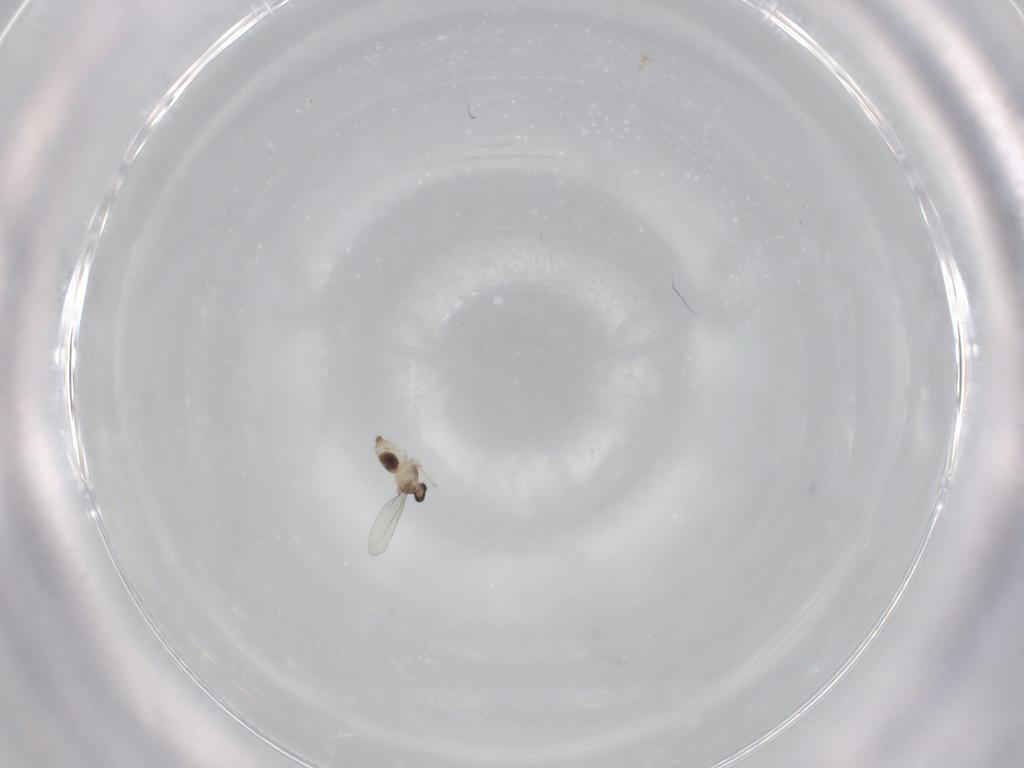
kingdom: Animalia
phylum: Arthropoda
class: Insecta
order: Diptera
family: Cecidomyiidae
